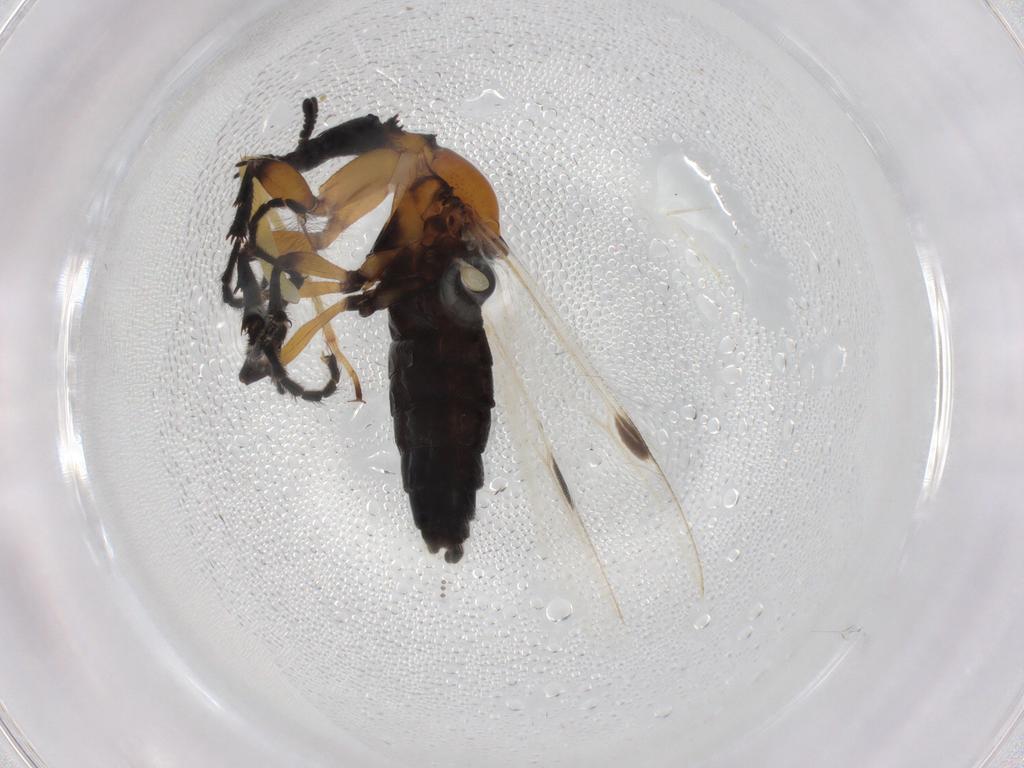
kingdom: Animalia
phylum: Arthropoda
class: Insecta
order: Diptera
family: Bibionidae
